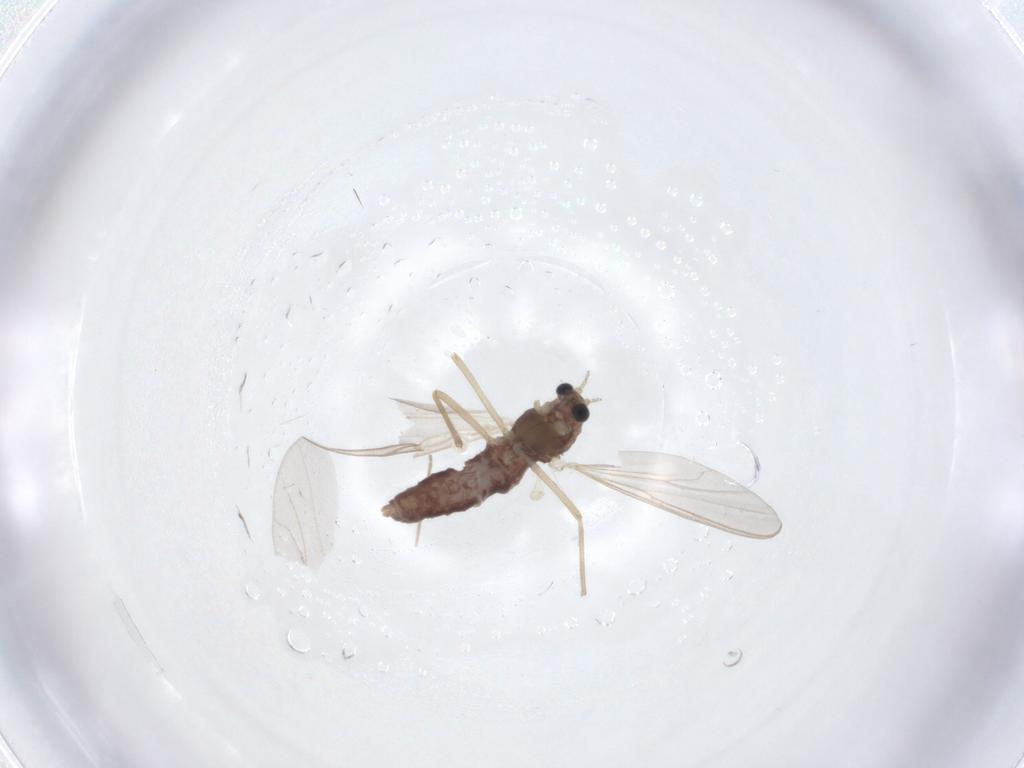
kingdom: Animalia
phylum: Arthropoda
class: Insecta
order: Diptera
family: Chironomidae
